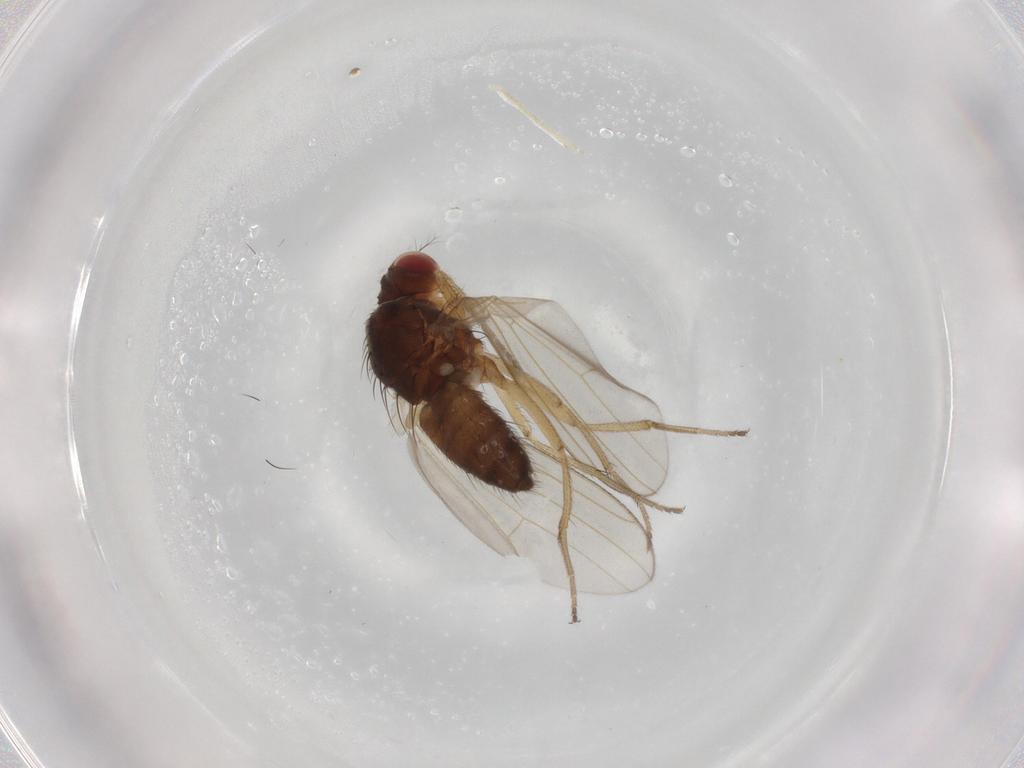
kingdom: Animalia
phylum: Arthropoda
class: Insecta
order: Diptera
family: Drosophilidae
